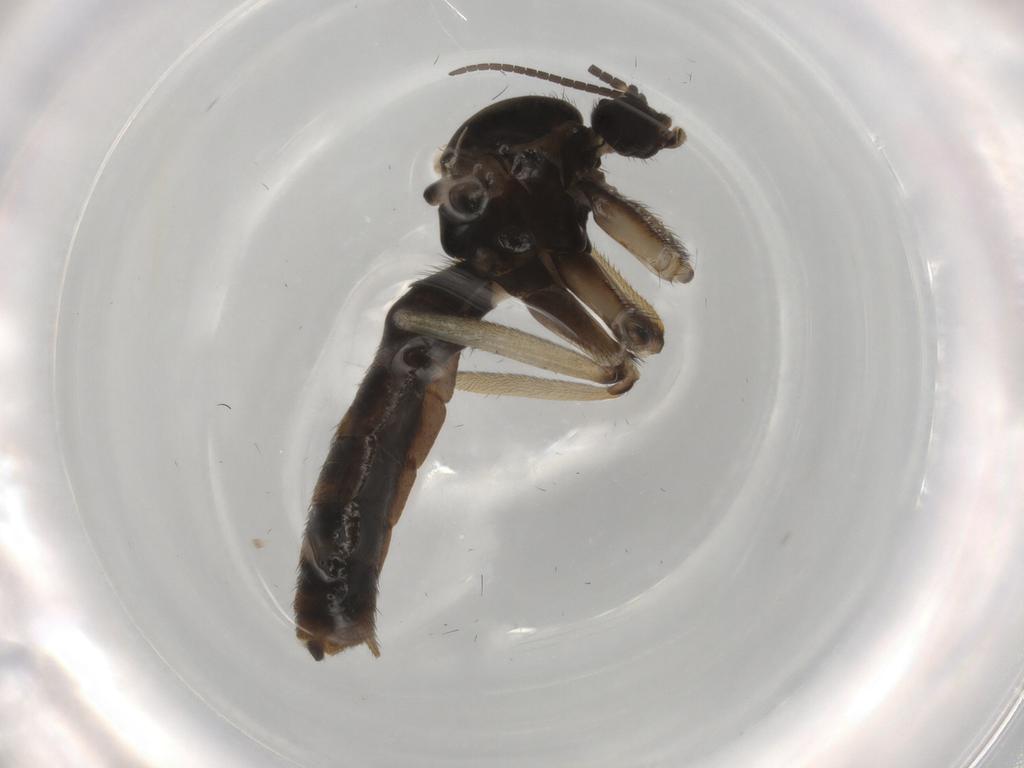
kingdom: Animalia
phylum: Arthropoda
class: Insecta
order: Diptera
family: Keroplatidae
